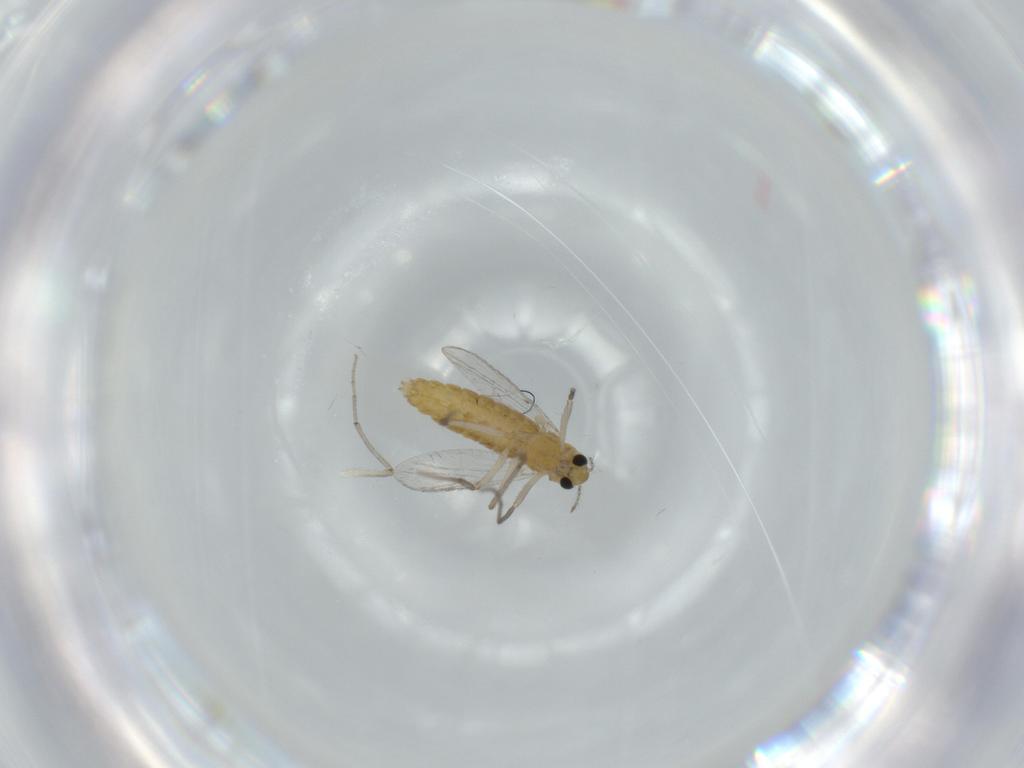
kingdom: Animalia
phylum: Arthropoda
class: Insecta
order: Diptera
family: Chironomidae
